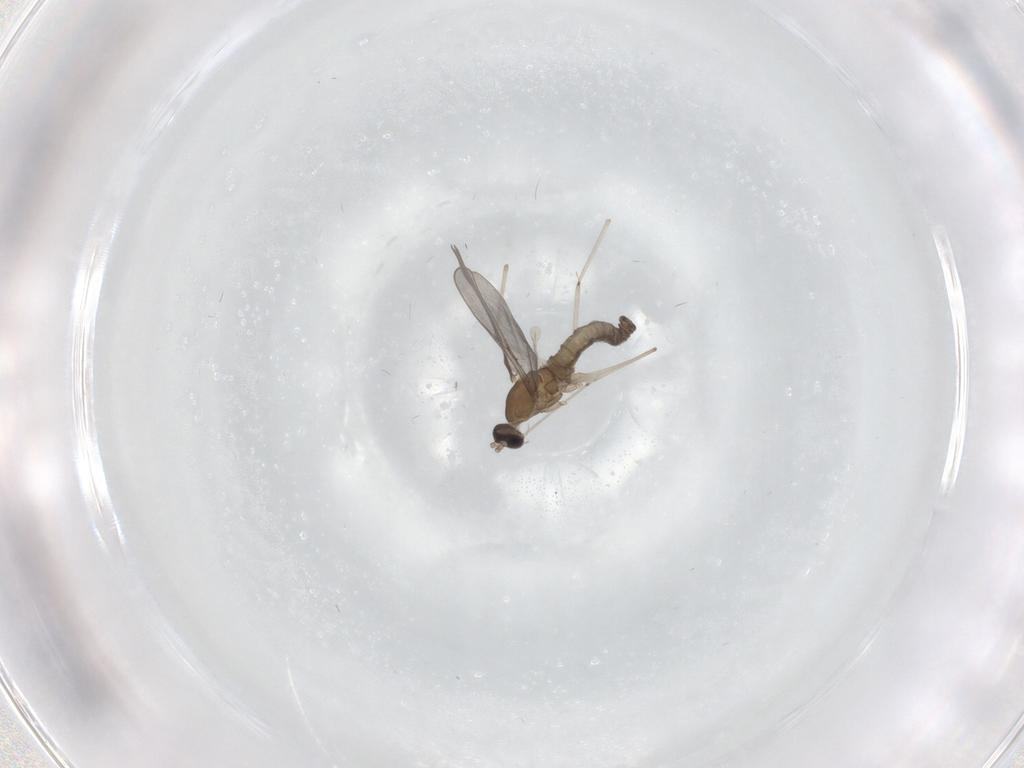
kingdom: Animalia
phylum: Arthropoda
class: Insecta
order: Diptera
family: Cecidomyiidae
